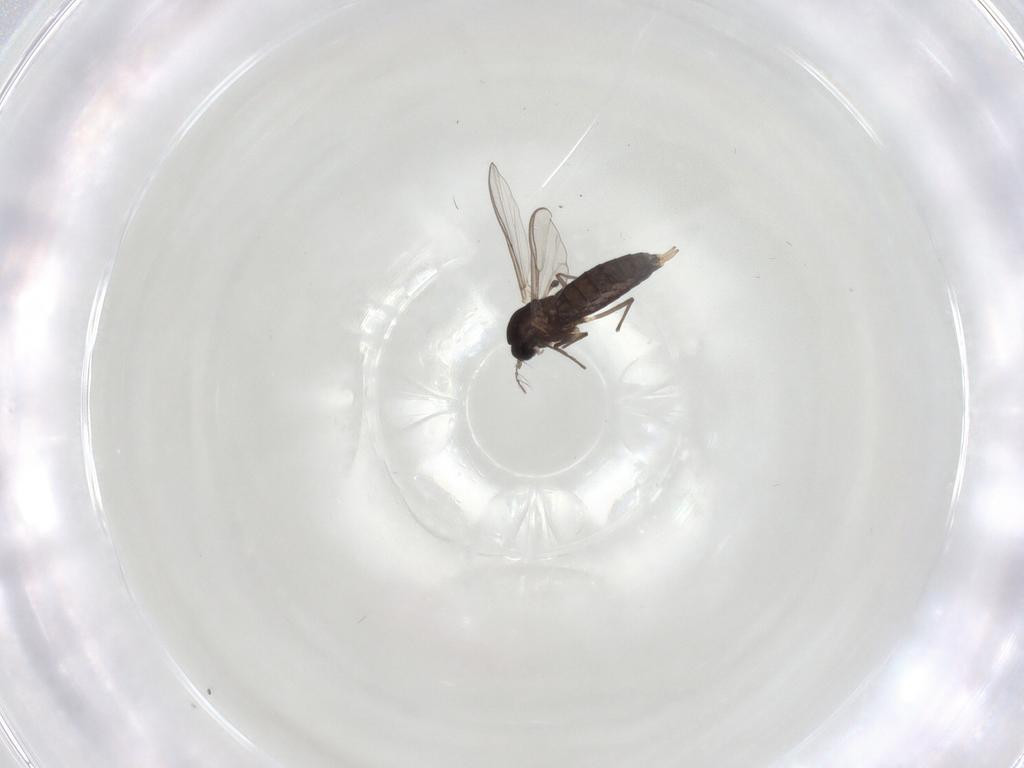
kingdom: Animalia
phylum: Arthropoda
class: Insecta
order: Diptera
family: Chironomidae
